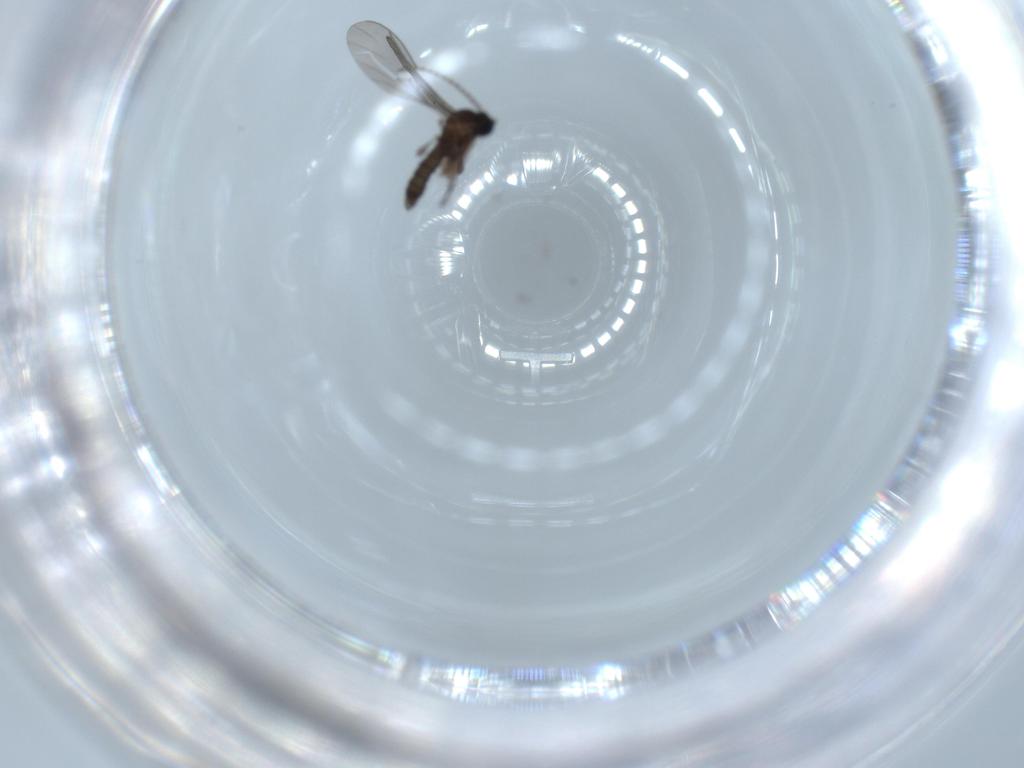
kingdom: Animalia
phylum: Arthropoda
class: Insecta
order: Diptera
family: Sciaridae
